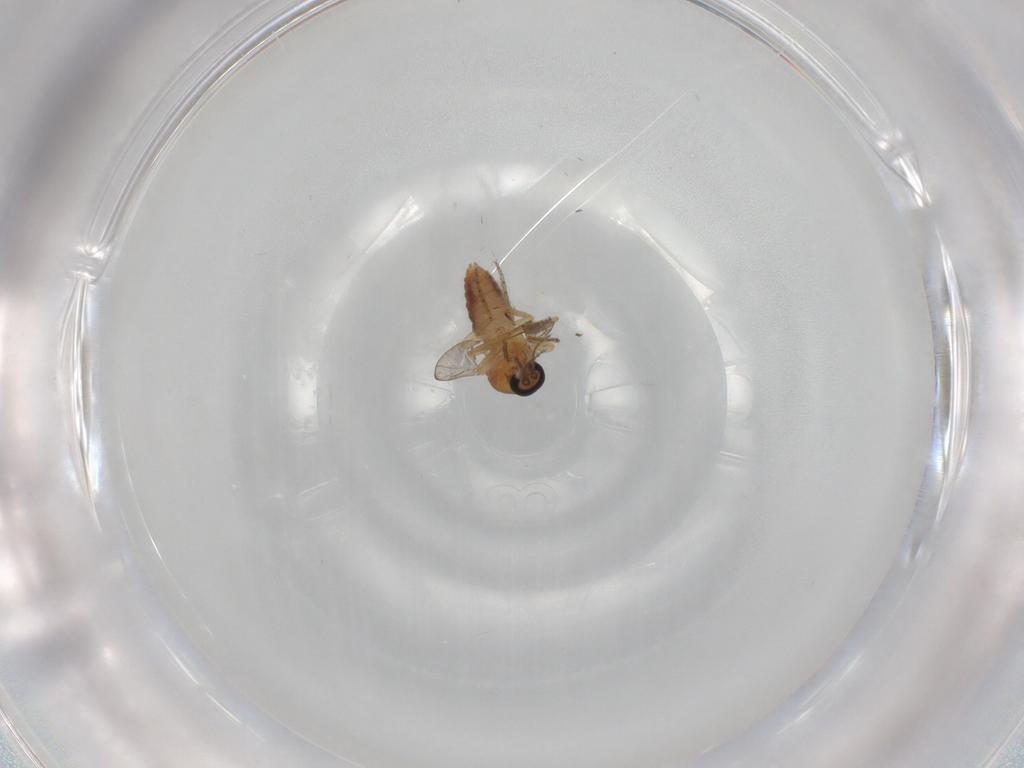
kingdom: Animalia
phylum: Arthropoda
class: Insecta
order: Diptera
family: Ceratopogonidae
